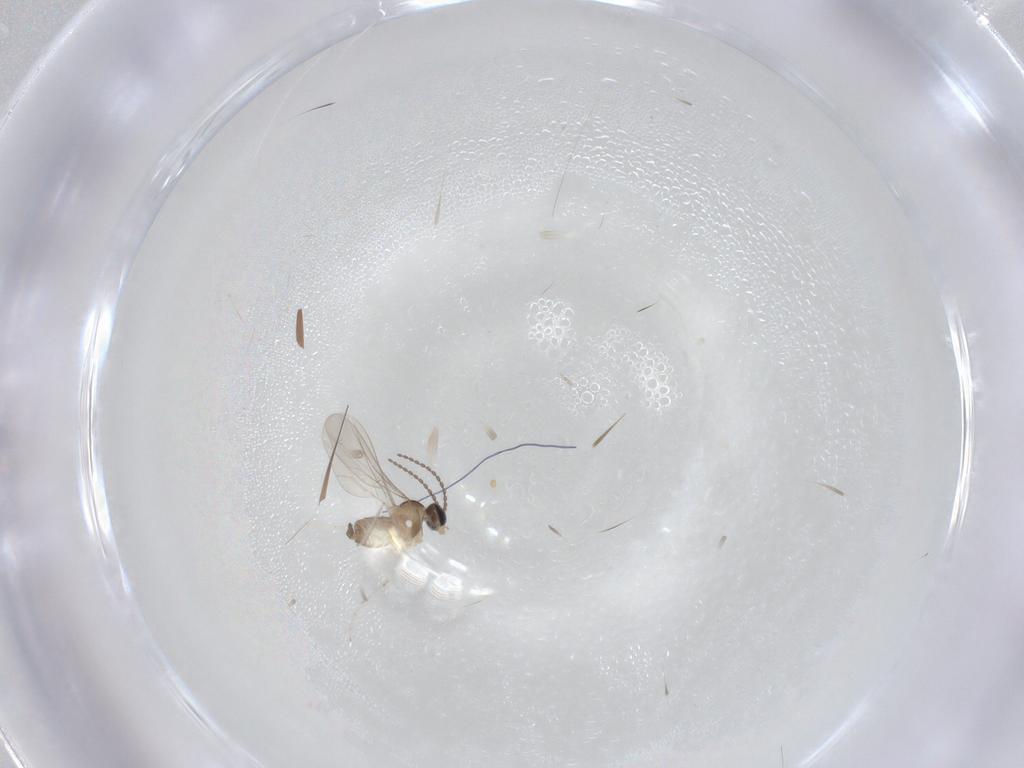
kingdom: Animalia
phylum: Arthropoda
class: Insecta
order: Diptera
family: Cecidomyiidae
